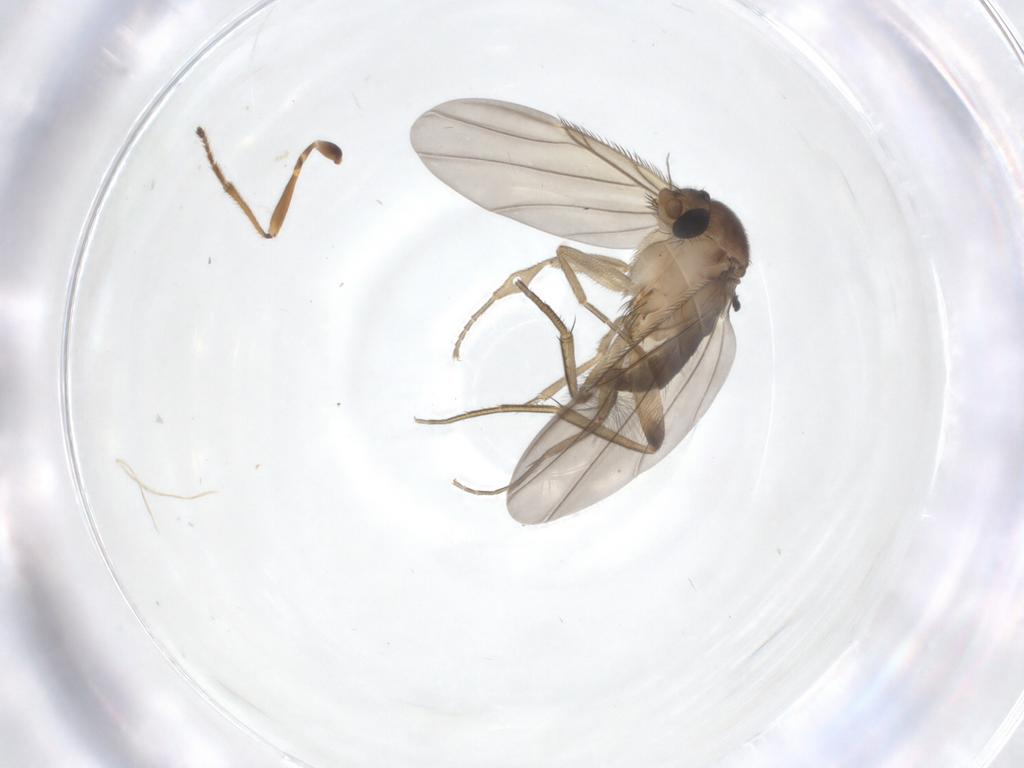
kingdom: Animalia
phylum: Arthropoda
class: Insecta
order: Diptera
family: Phoridae
